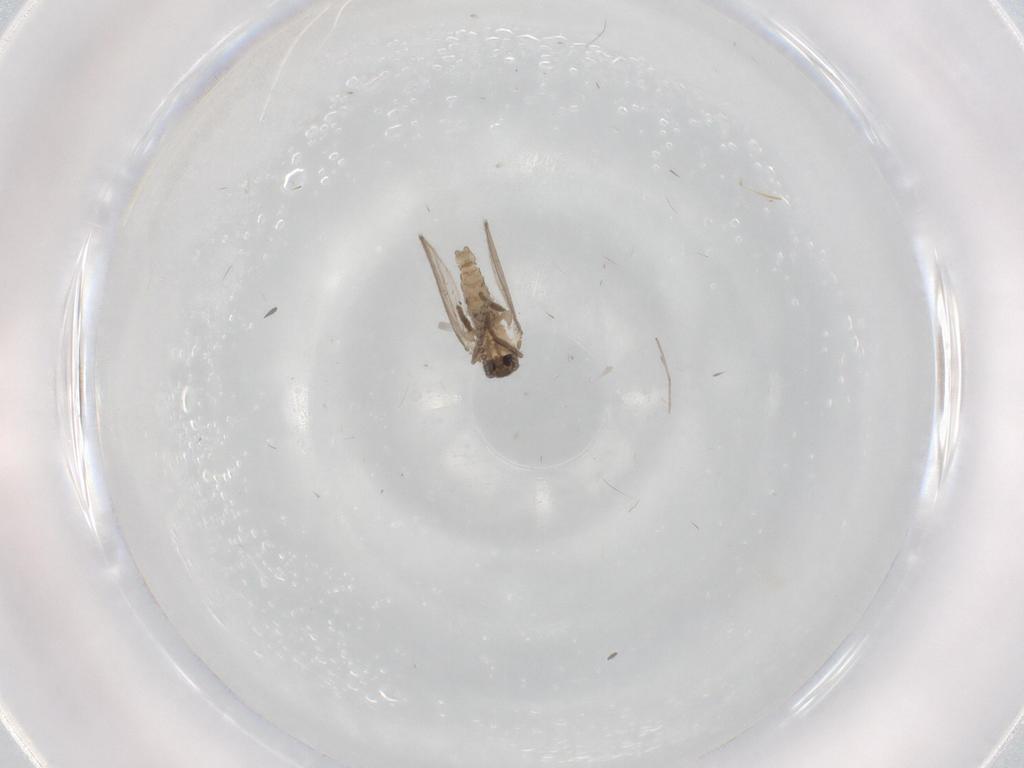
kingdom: Animalia
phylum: Arthropoda
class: Insecta
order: Diptera
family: Psychodidae
